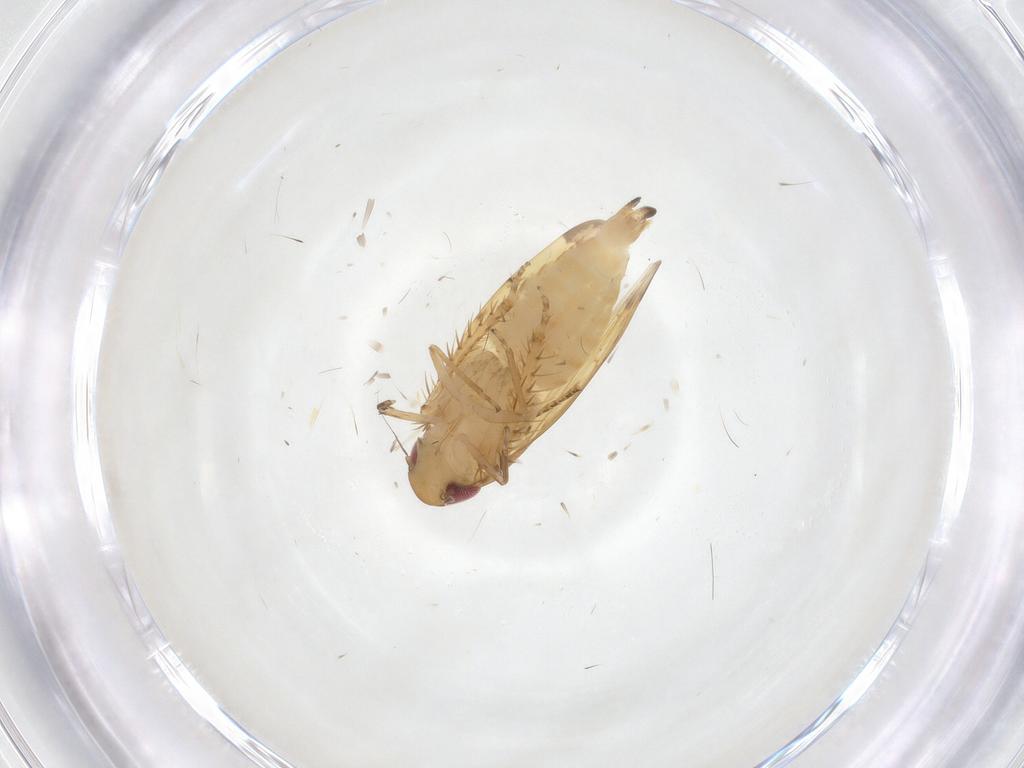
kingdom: Animalia
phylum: Arthropoda
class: Insecta
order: Hemiptera
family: Cicadellidae
